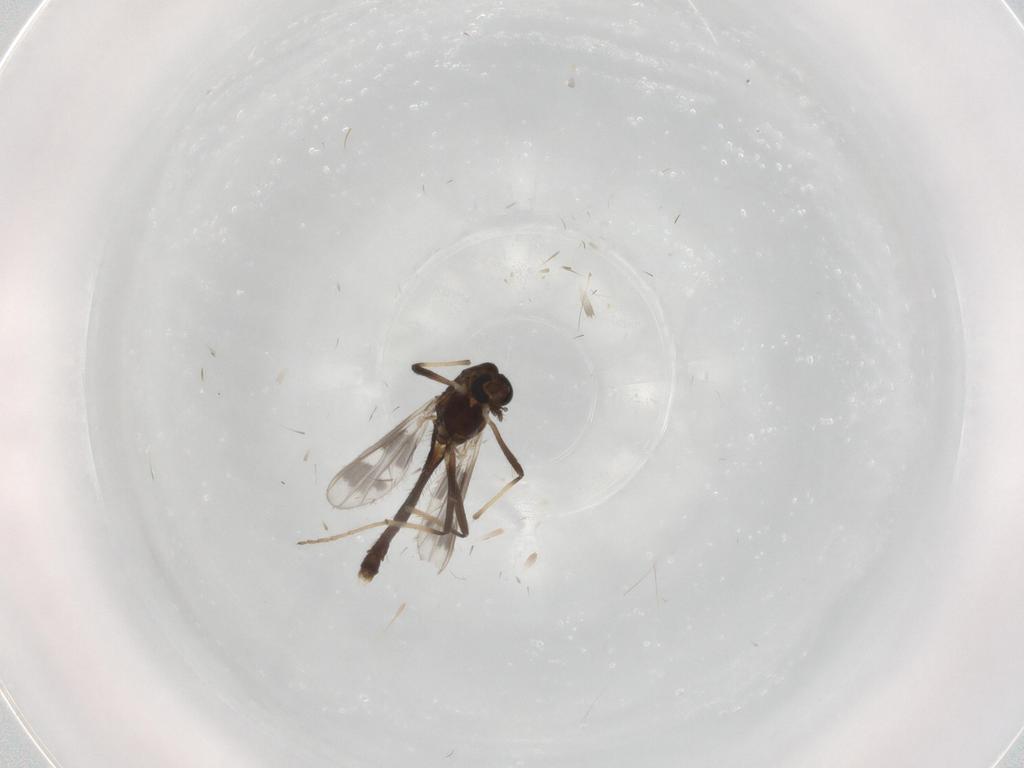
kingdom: Animalia
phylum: Arthropoda
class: Insecta
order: Diptera
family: Chironomidae
